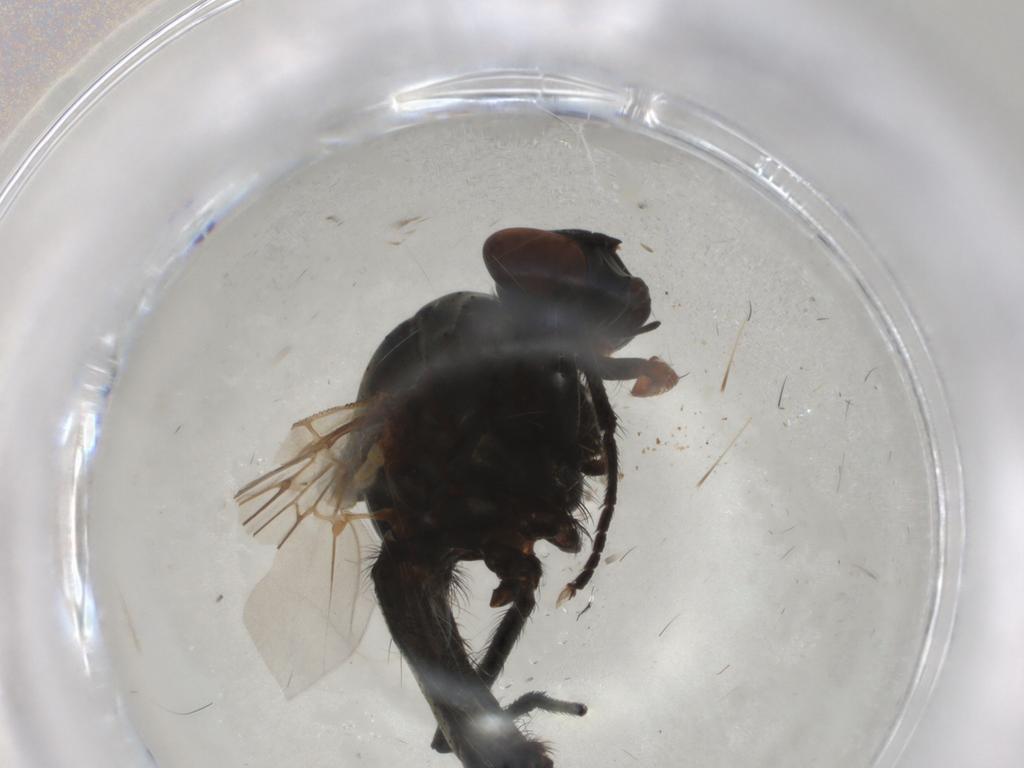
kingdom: Animalia
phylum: Arthropoda
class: Insecta
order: Diptera
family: Anthomyiidae
